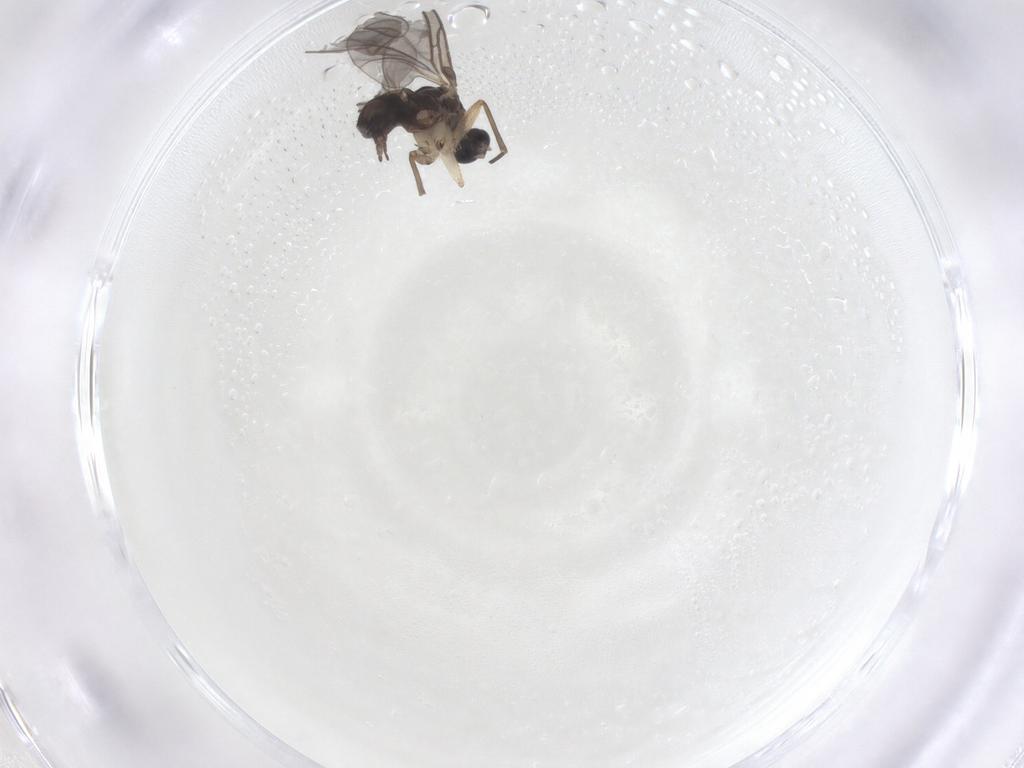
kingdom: Animalia
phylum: Arthropoda
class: Insecta
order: Diptera
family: Sciaridae
